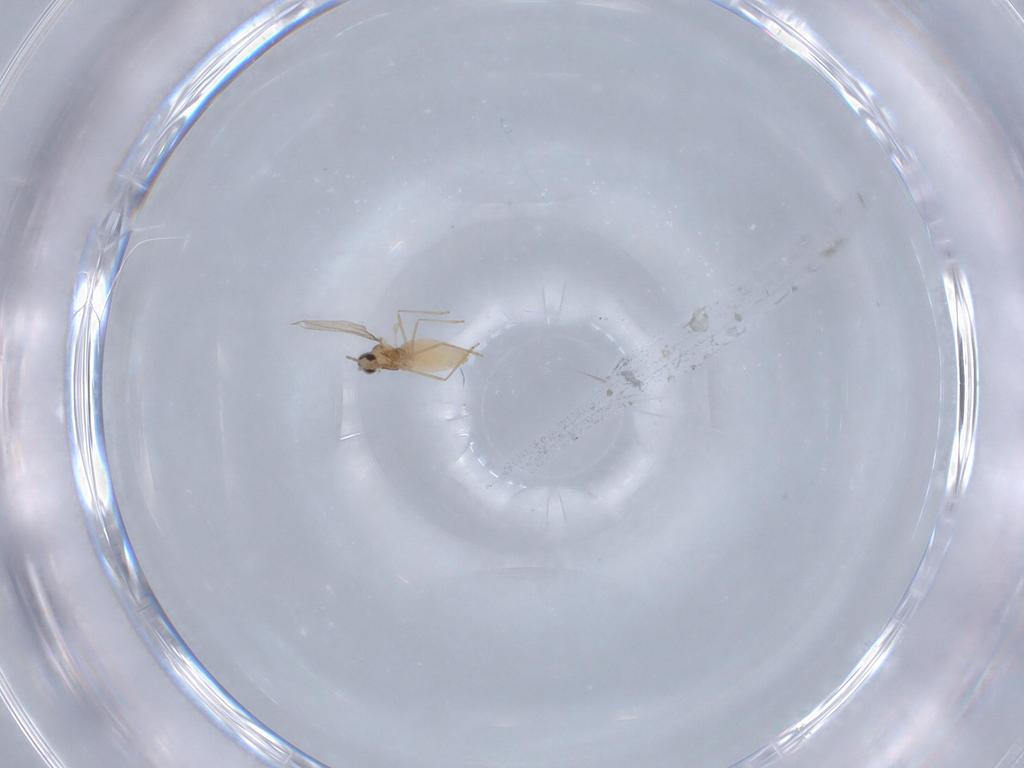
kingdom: Animalia
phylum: Arthropoda
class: Insecta
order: Diptera
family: Cecidomyiidae
